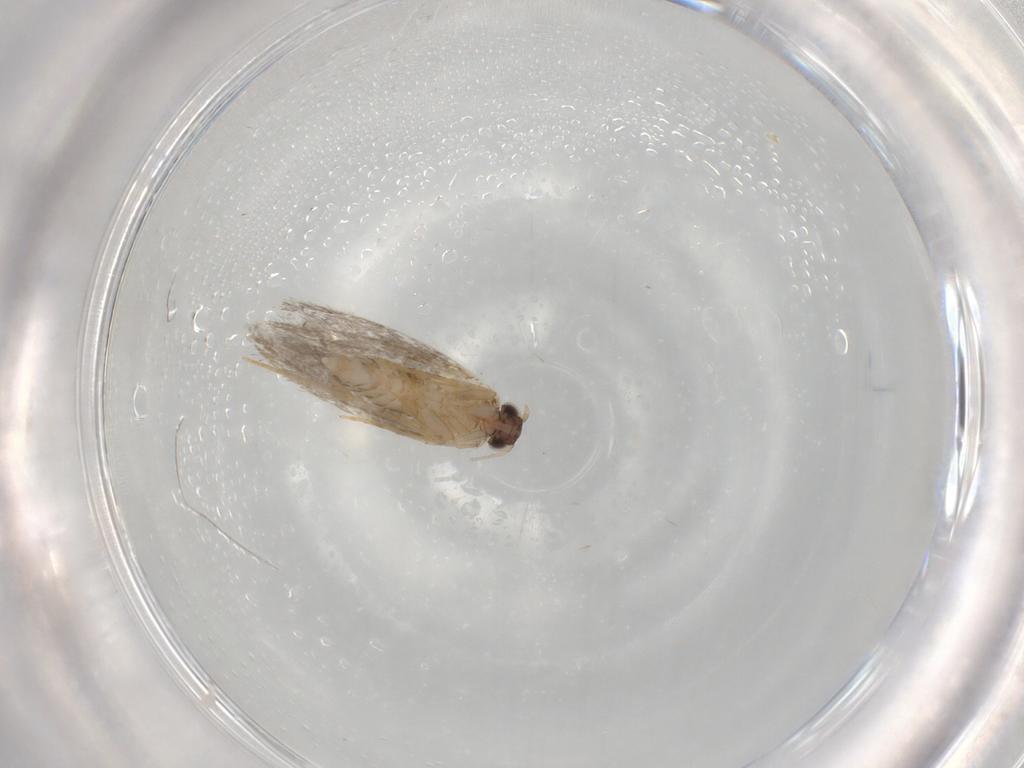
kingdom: Animalia
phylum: Arthropoda
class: Insecta
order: Lepidoptera
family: Tineidae
